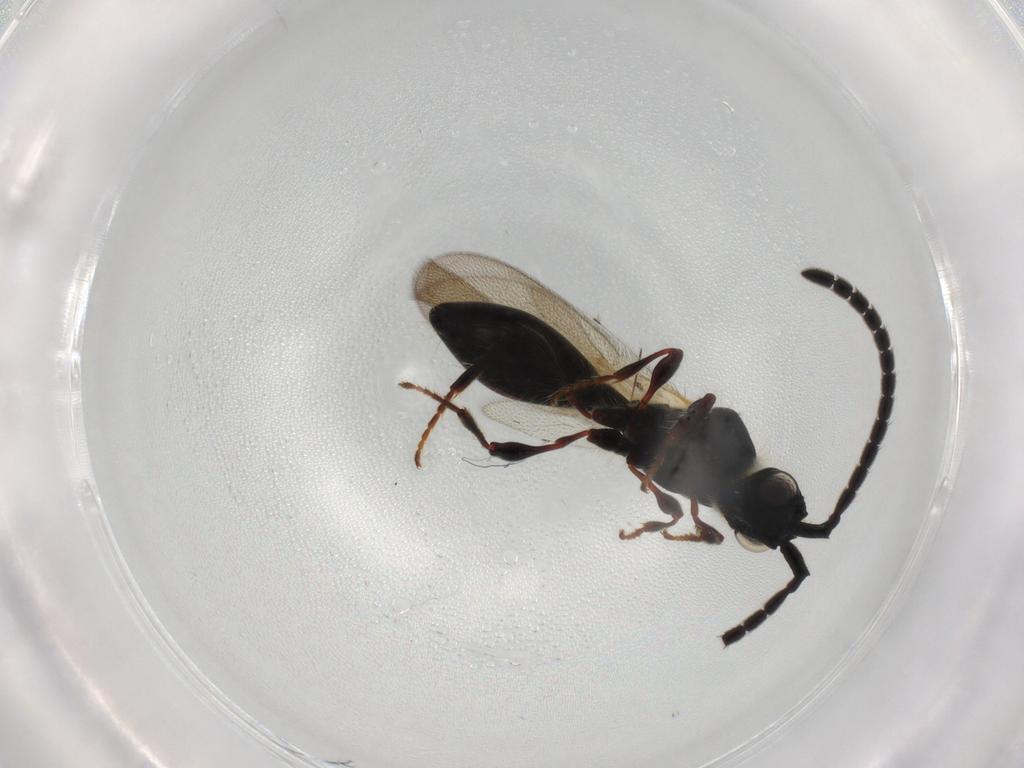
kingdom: Animalia
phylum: Arthropoda
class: Insecta
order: Hymenoptera
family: Diapriidae
